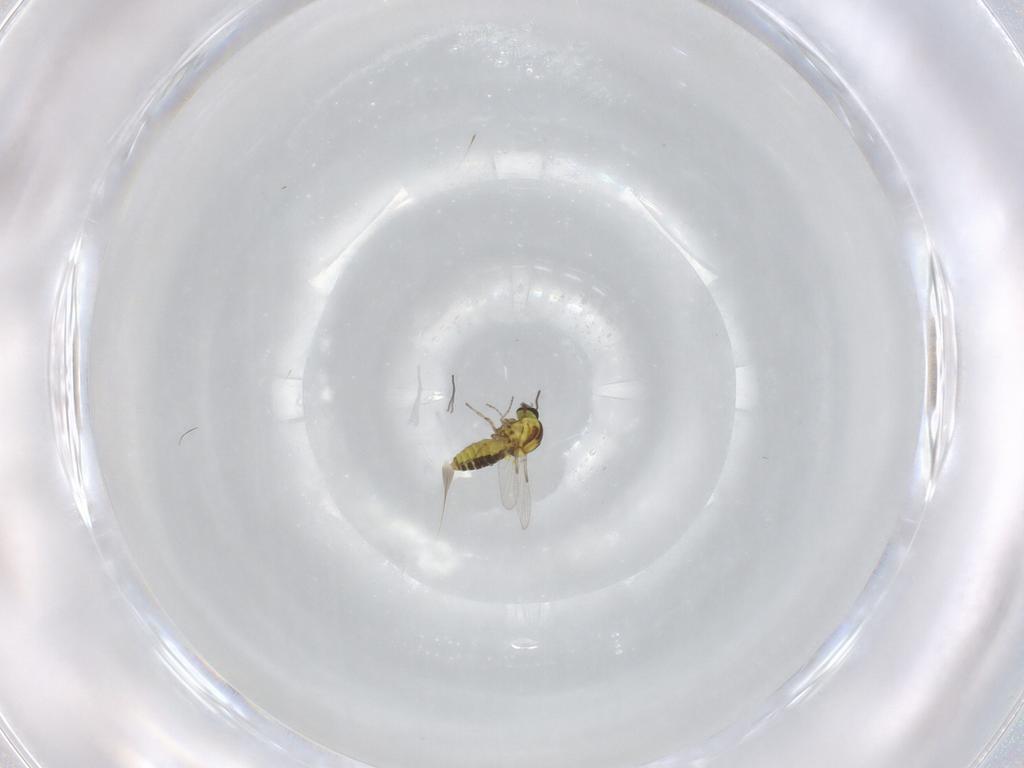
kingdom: Animalia
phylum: Arthropoda
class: Insecta
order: Diptera
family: Ceratopogonidae
